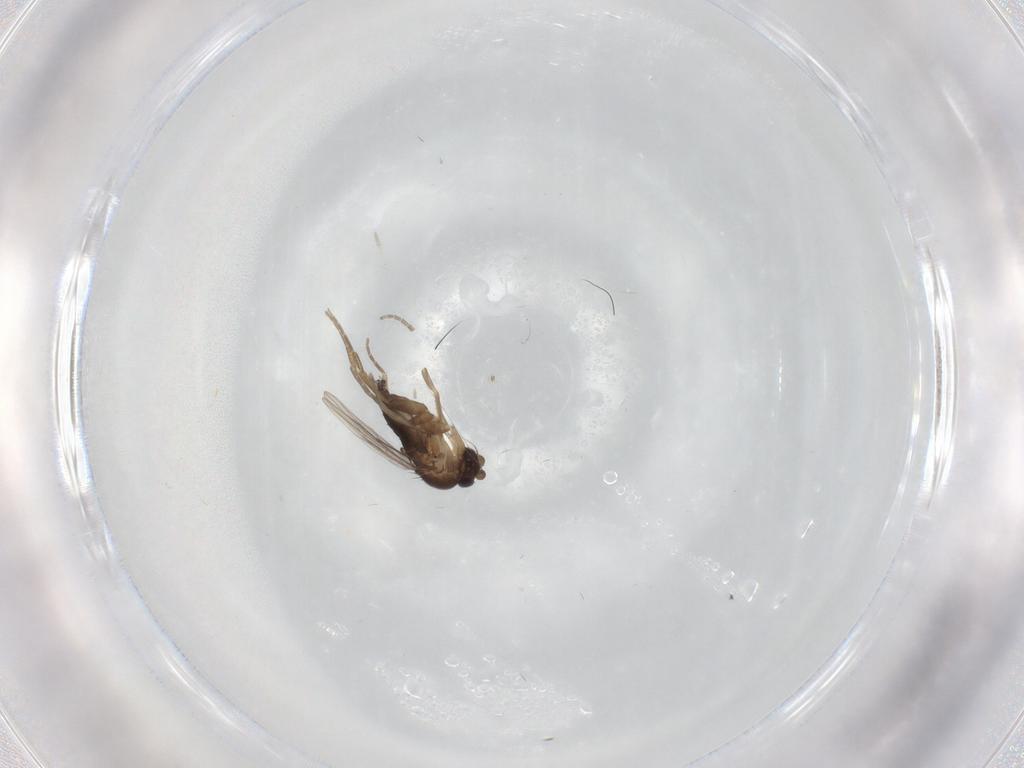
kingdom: Animalia
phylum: Arthropoda
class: Insecta
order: Diptera
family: Phoridae
